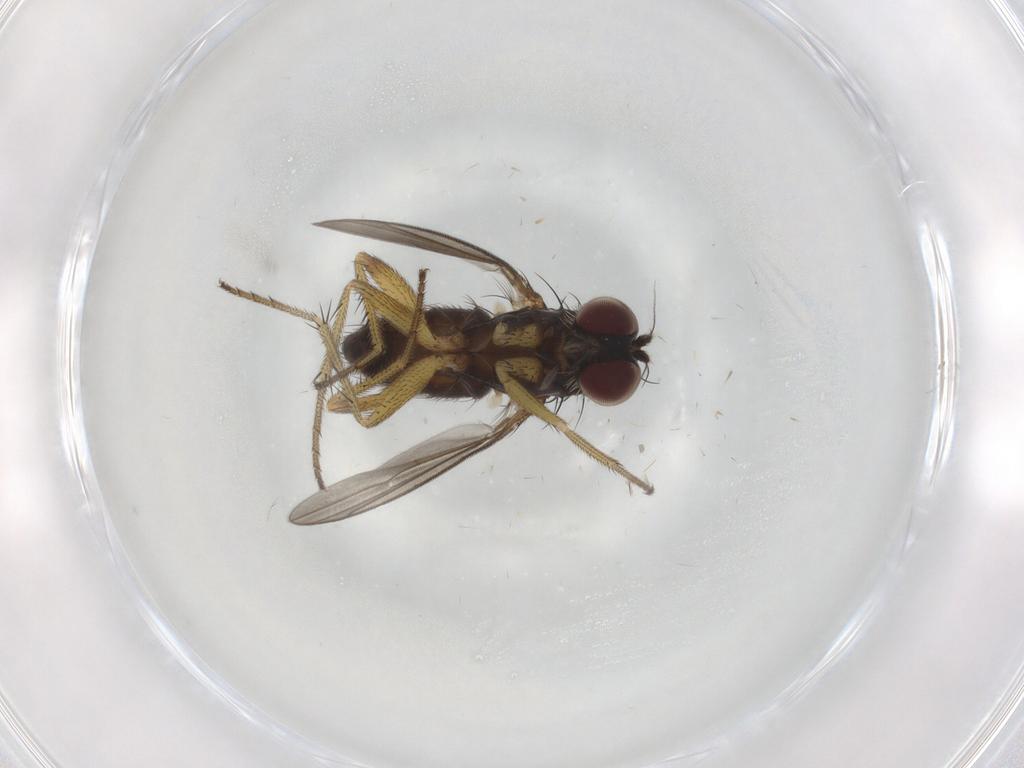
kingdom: Animalia
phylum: Arthropoda
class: Insecta
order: Diptera
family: Dolichopodidae
